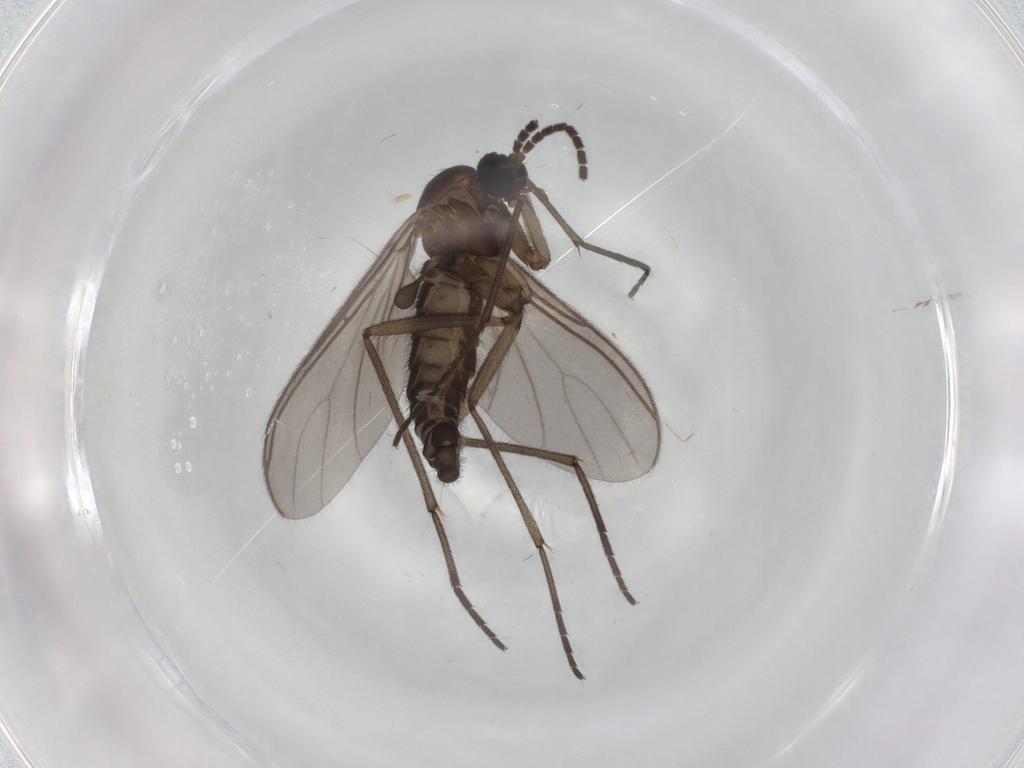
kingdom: Animalia
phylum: Arthropoda
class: Insecta
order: Diptera
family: Sciaridae
